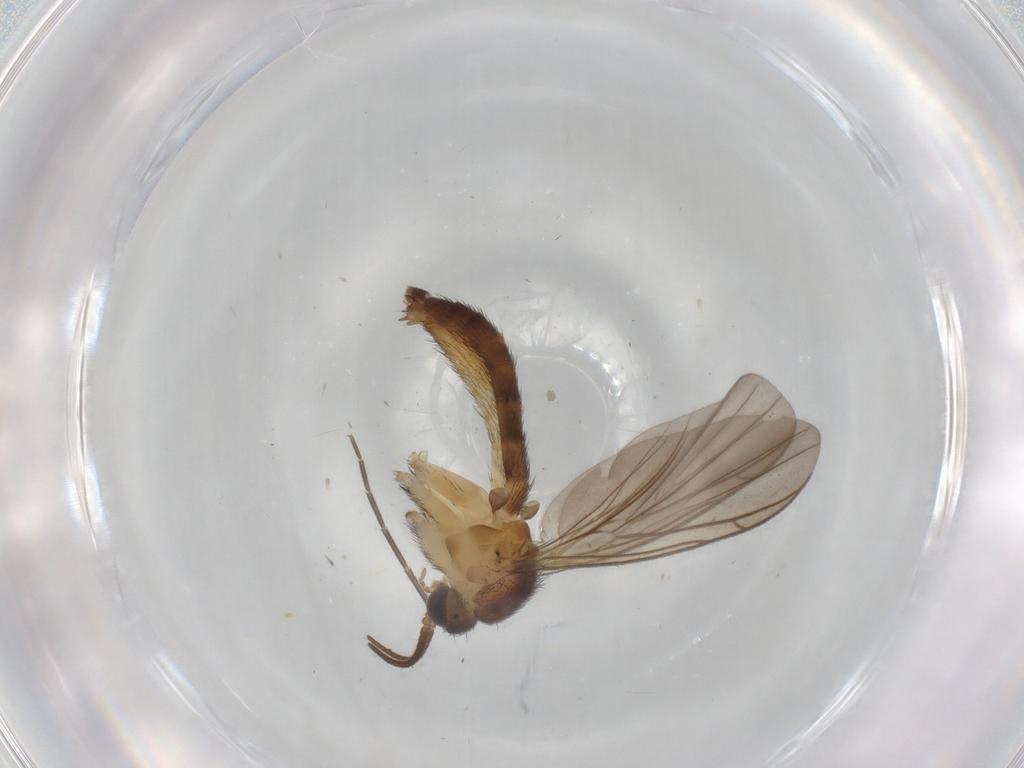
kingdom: Animalia
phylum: Arthropoda
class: Insecta
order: Diptera
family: Keroplatidae
